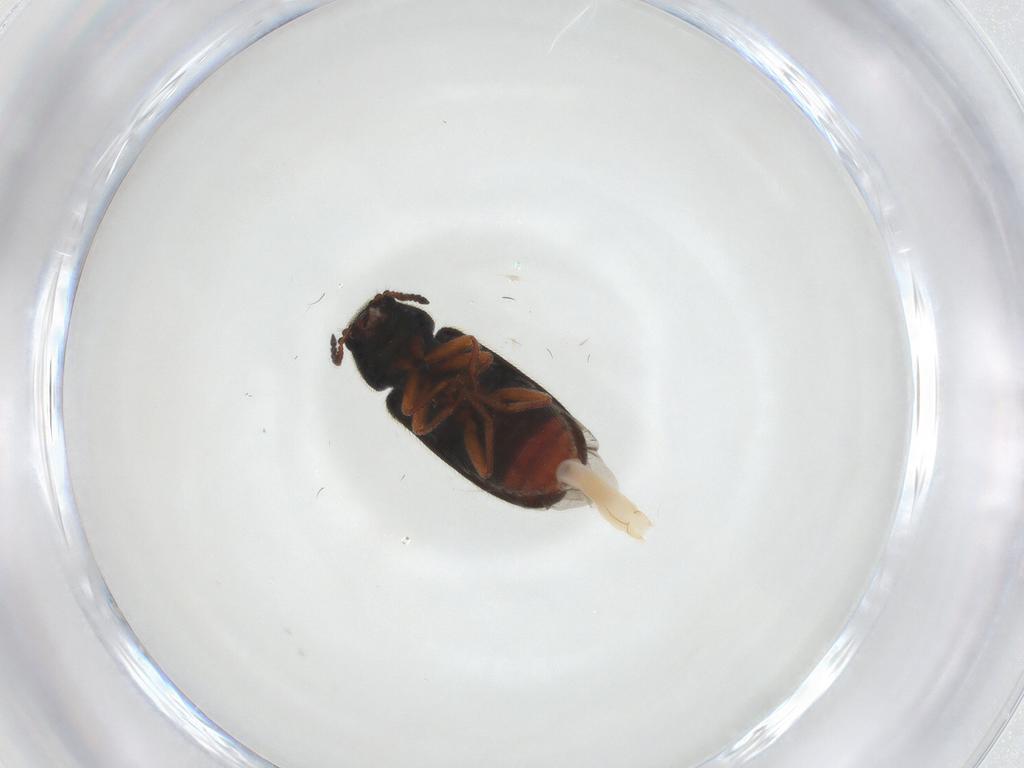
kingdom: Animalia
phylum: Arthropoda
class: Insecta
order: Coleoptera
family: Melyridae
